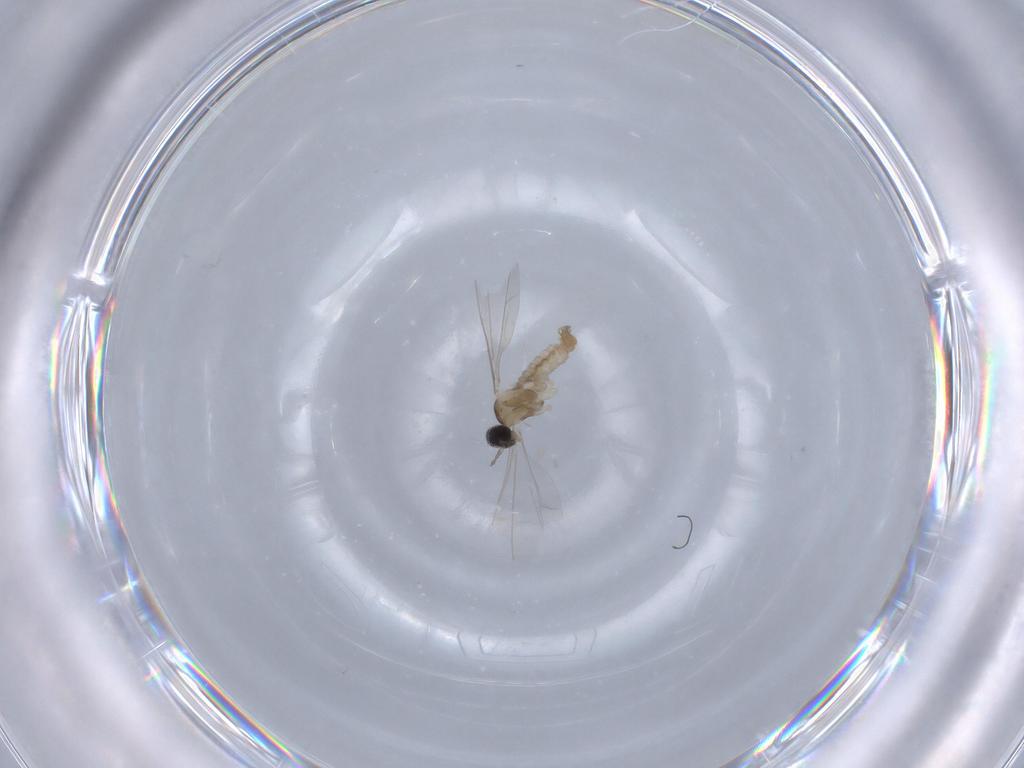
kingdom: Animalia
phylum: Arthropoda
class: Insecta
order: Diptera
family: Cecidomyiidae
